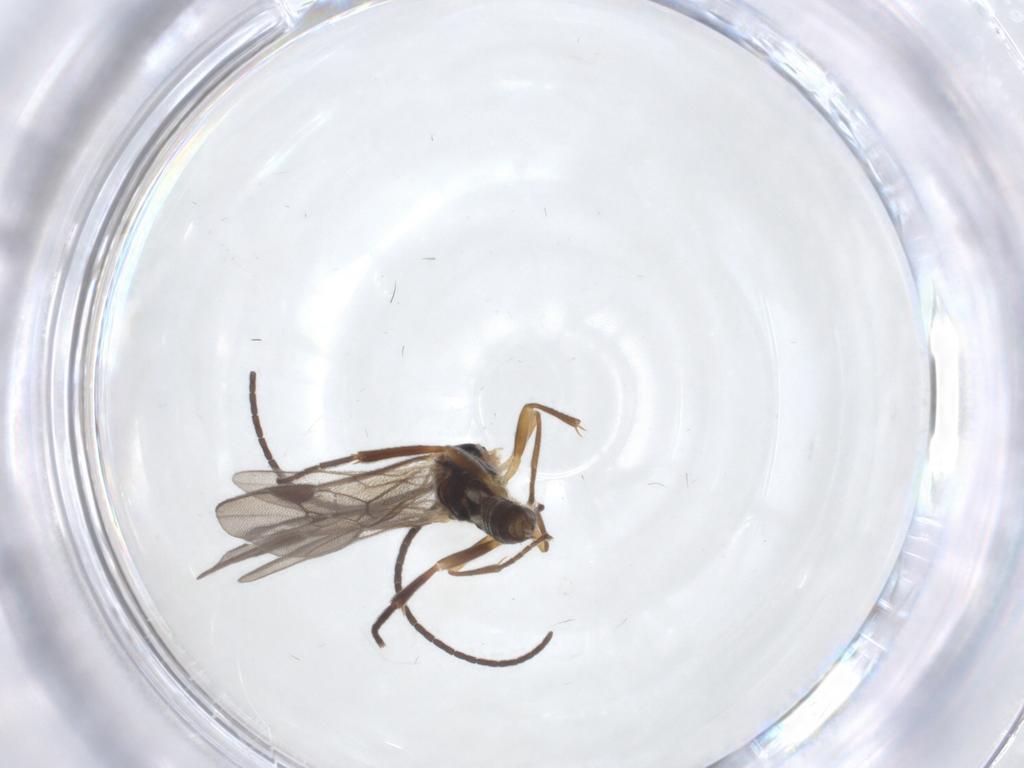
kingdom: Animalia
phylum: Arthropoda
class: Insecta
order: Hymenoptera
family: Braconidae
